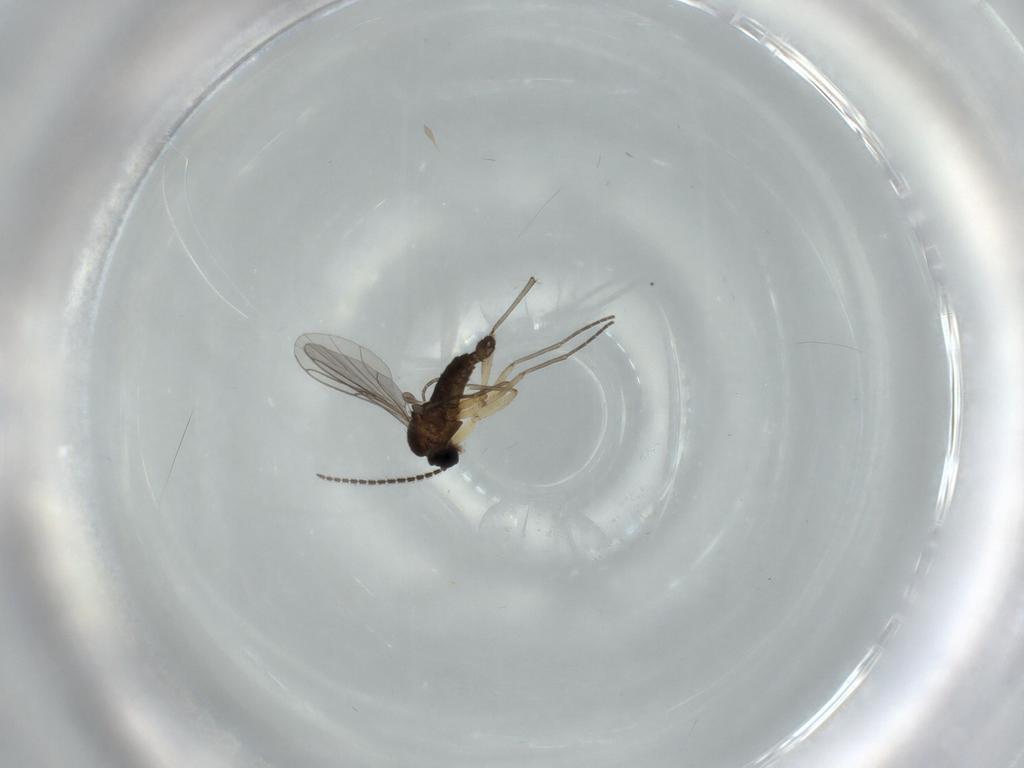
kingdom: Animalia
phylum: Arthropoda
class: Insecta
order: Diptera
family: Sciaridae
